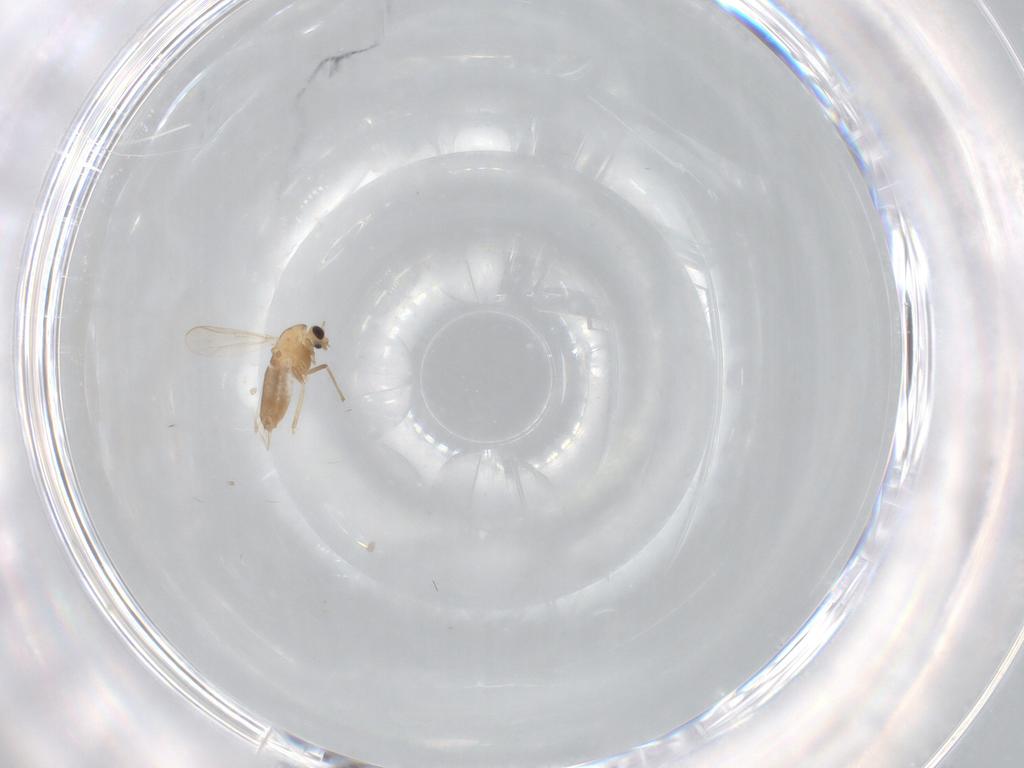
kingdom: Animalia
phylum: Arthropoda
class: Insecta
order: Diptera
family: Chironomidae
